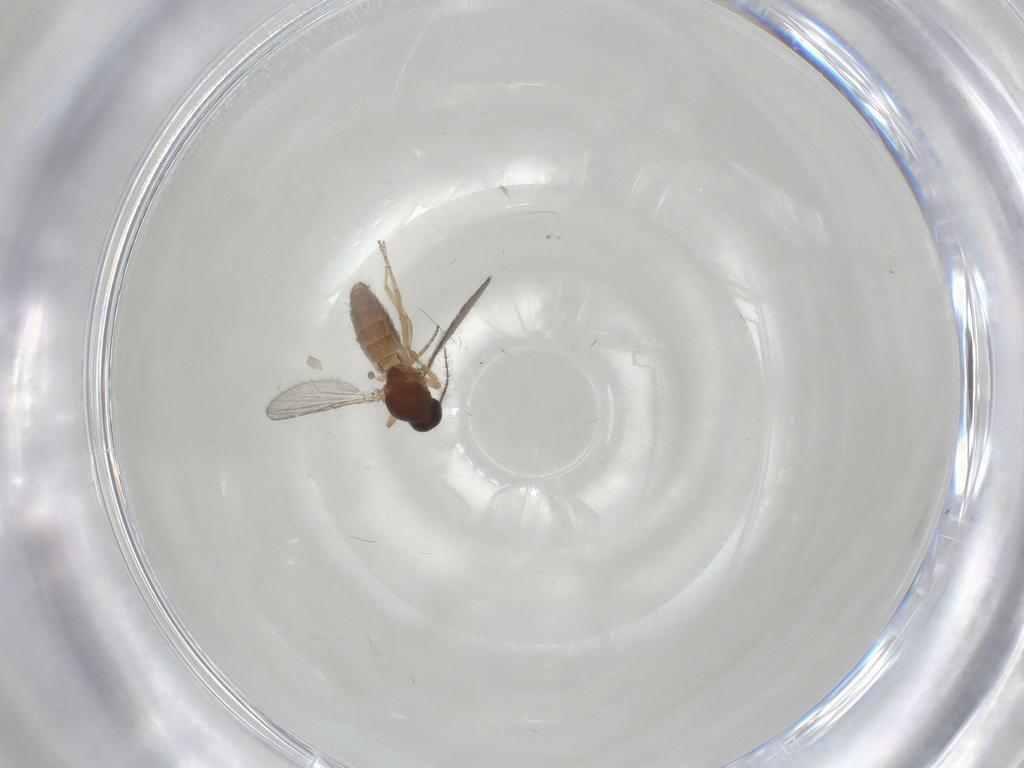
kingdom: Animalia
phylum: Arthropoda
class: Insecta
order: Diptera
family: Ceratopogonidae
